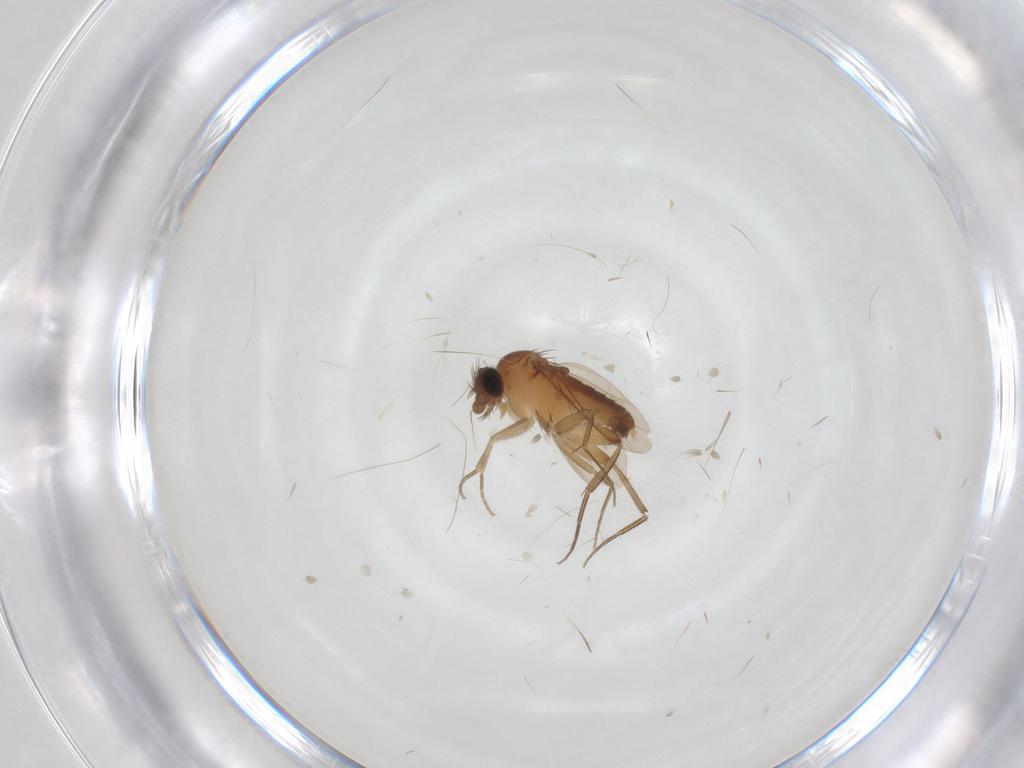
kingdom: Animalia
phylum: Arthropoda
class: Insecta
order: Diptera
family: Phoridae
